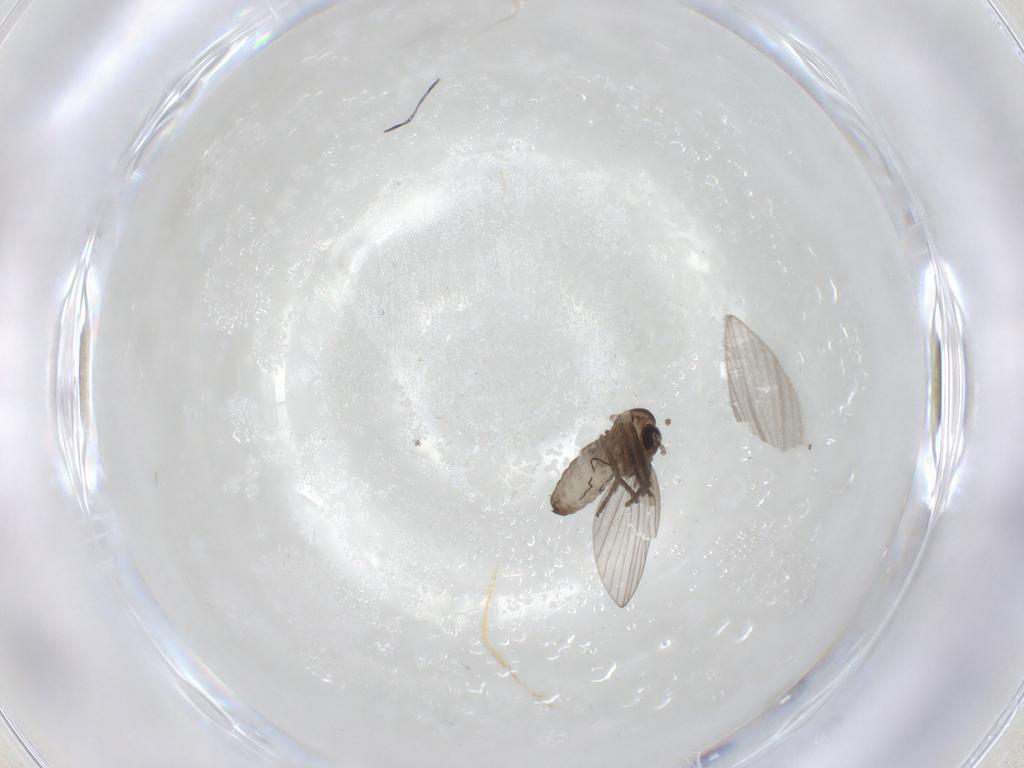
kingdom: Animalia
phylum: Arthropoda
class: Insecta
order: Diptera
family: Psychodidae
